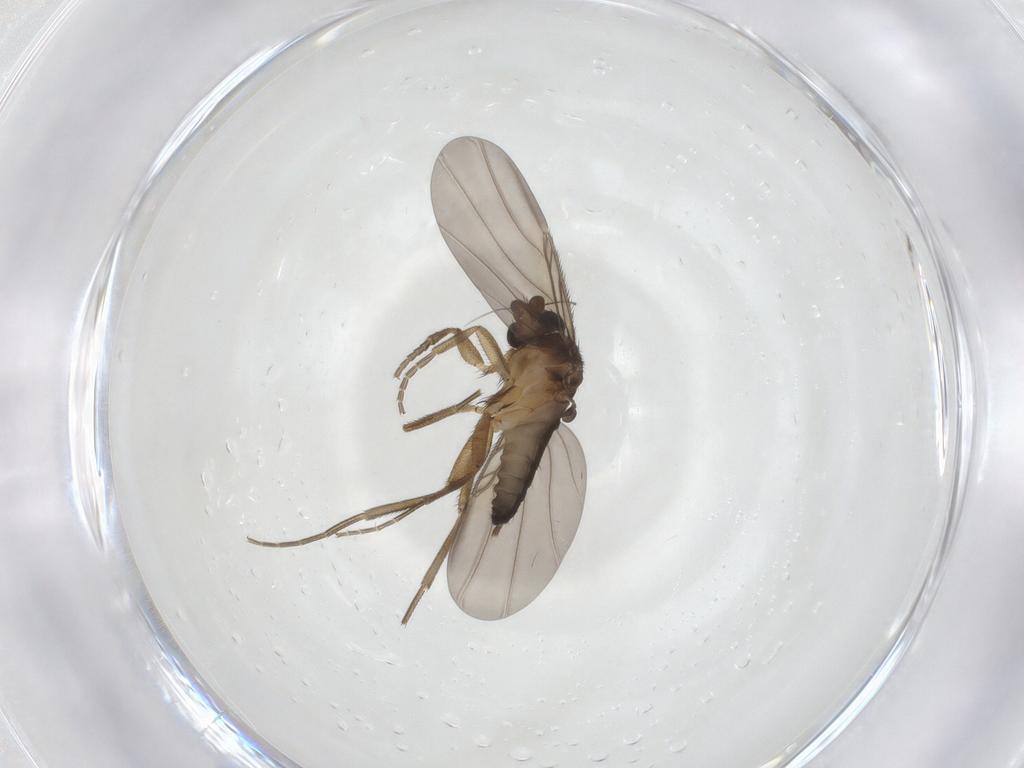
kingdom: Animalia
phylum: Arthropoda
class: Insecta
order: Diptera
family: Phoridae
